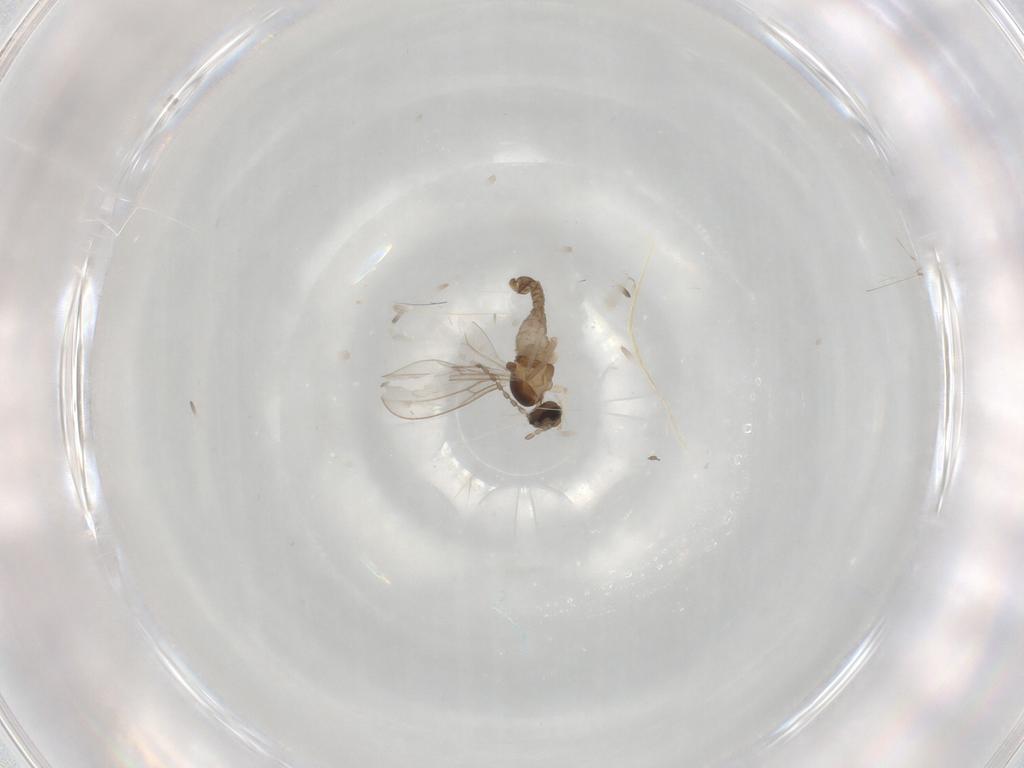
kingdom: Animalia
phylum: Arthropoda
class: Insecta
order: Diptera
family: Cecidomyiidae
